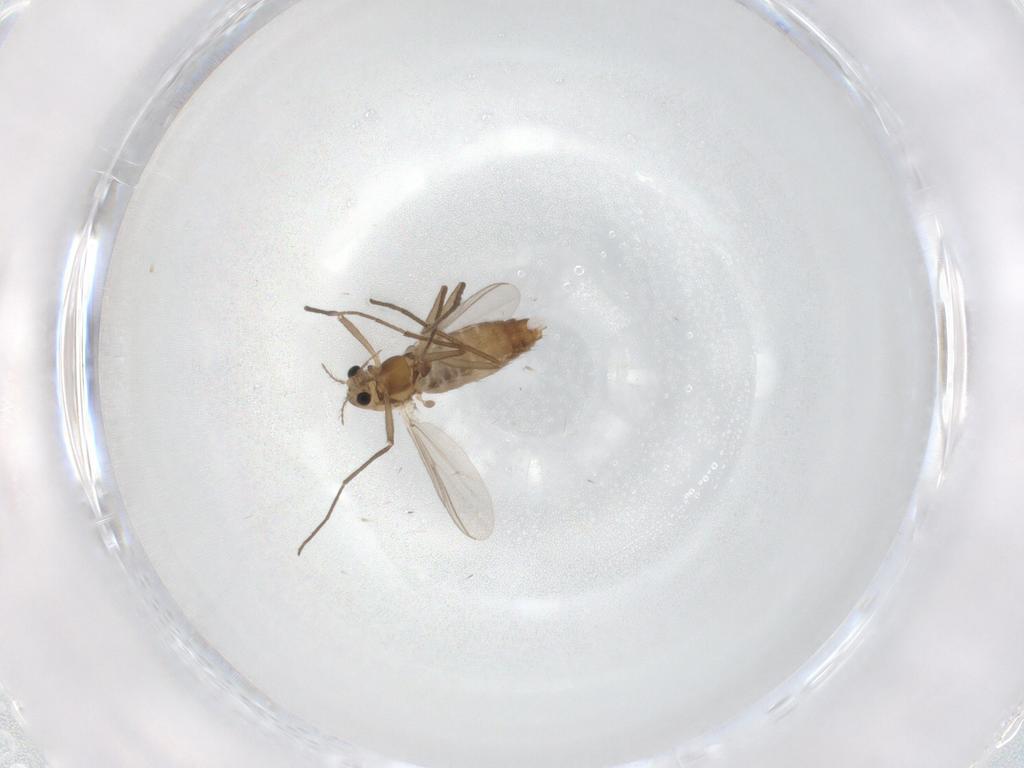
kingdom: Animalia
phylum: Arthropoda
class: Insecta
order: Diptera
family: Chironomidae
